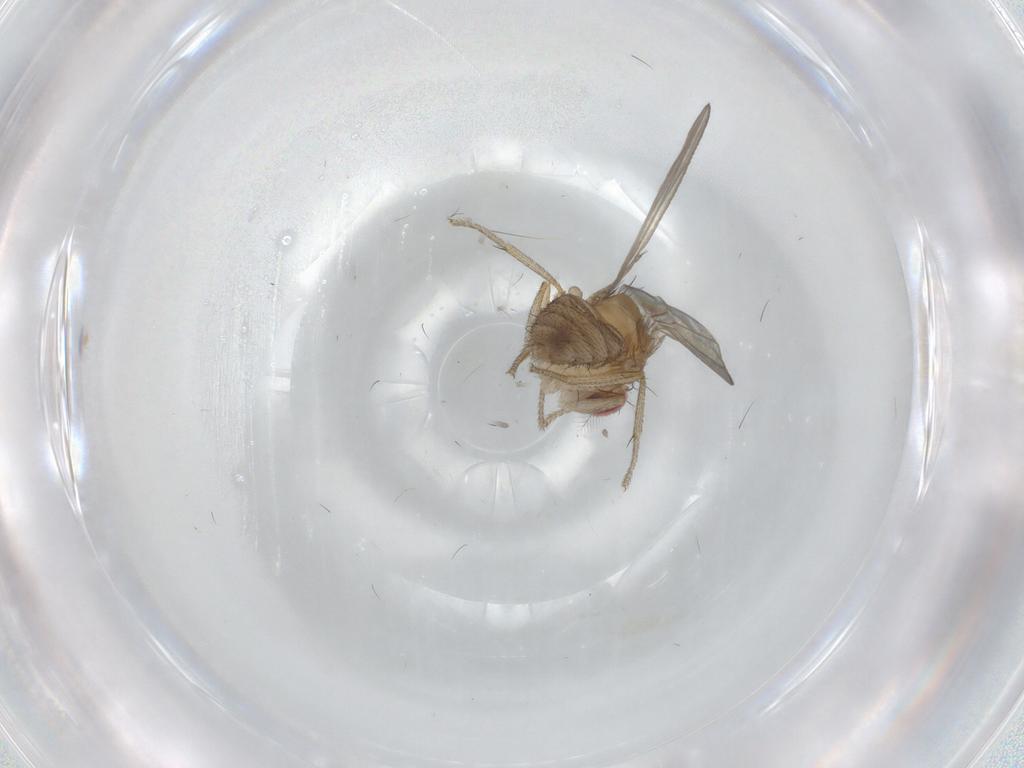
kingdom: Animalia
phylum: Arthropoda
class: Insecta
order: Diptera
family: Drosophilidae
